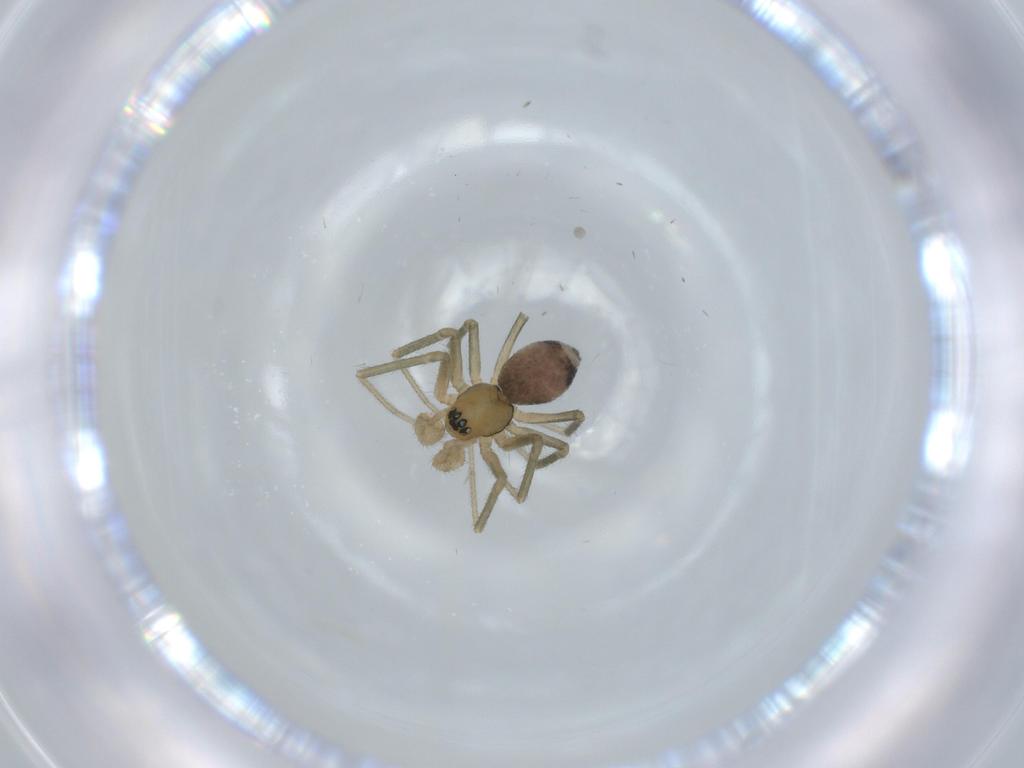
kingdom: Animalia
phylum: Arthropoda
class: Arachnida
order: Araneae
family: Linyphiidae
